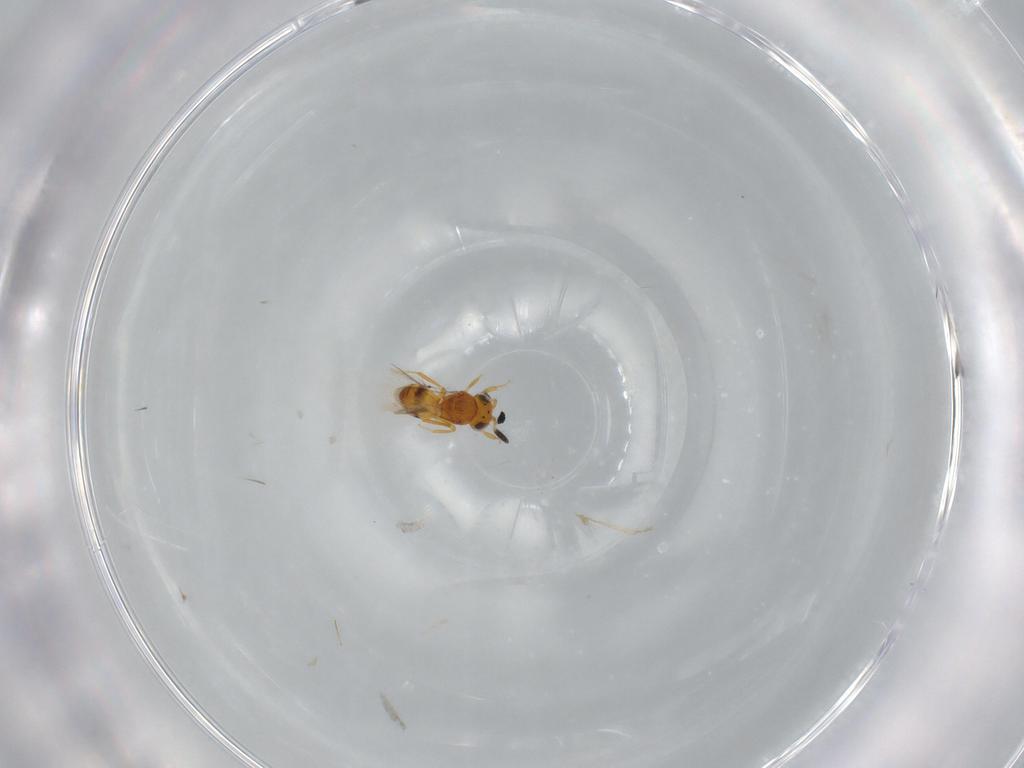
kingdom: Animalia
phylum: Arthropoda
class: Insecta
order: Hymenoptera
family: Scelionidae
